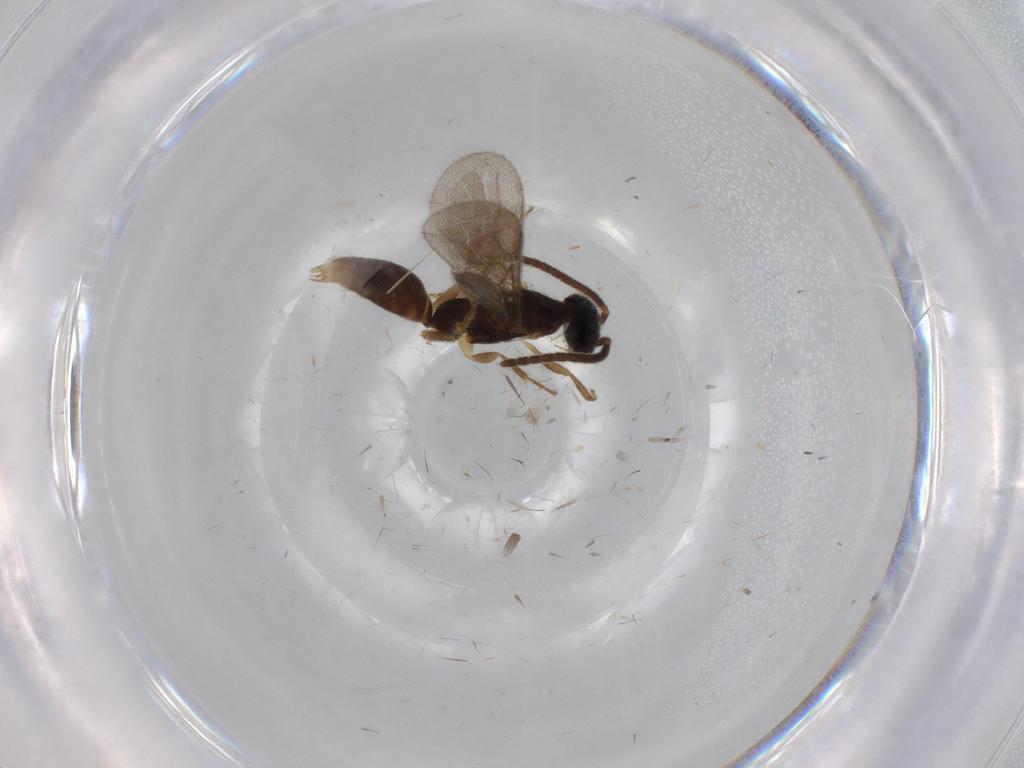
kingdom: Animalia
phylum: Arthropoda
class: Insecta
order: Hymenoptera
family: Bethylidae
